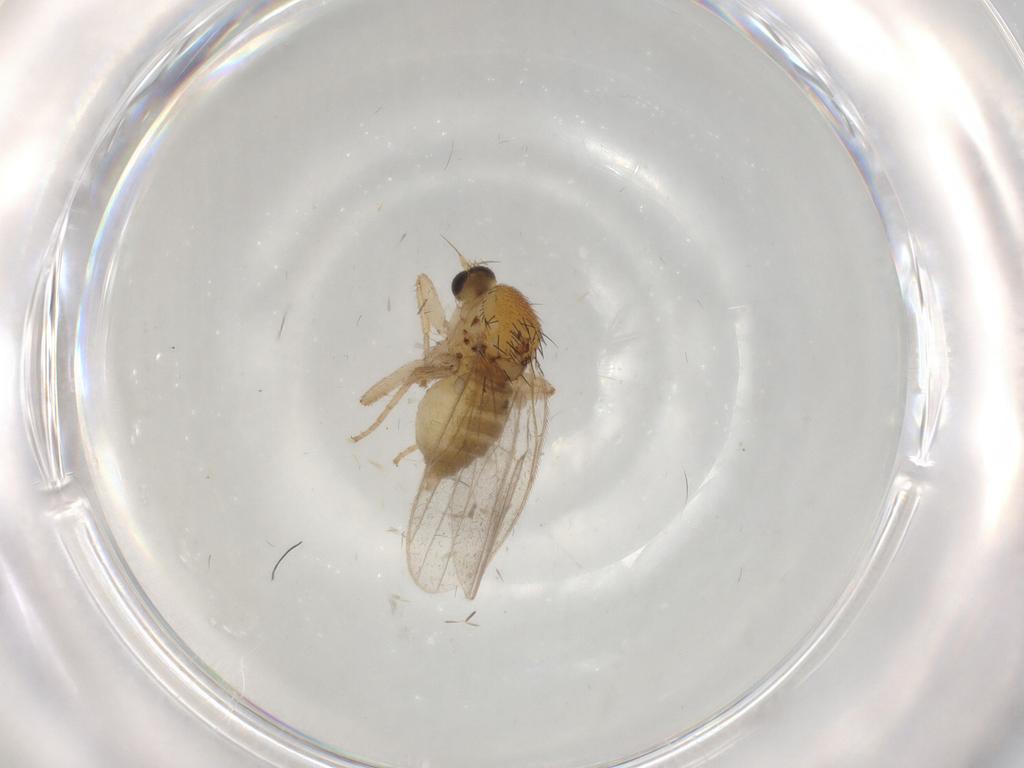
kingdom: Animalia
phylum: Arthropoda
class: Insecta
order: Diptera
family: Hybotidae
